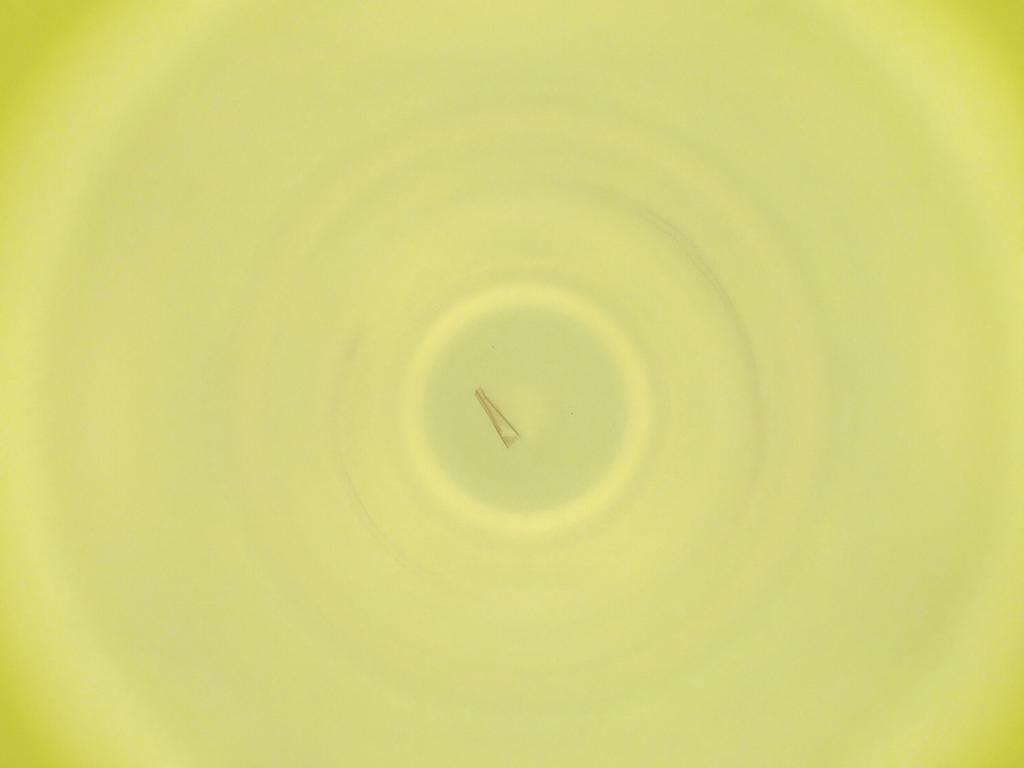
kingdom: Animalia
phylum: Arthropoda
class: Insecta
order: Diptera
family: Cecidomyiidae
